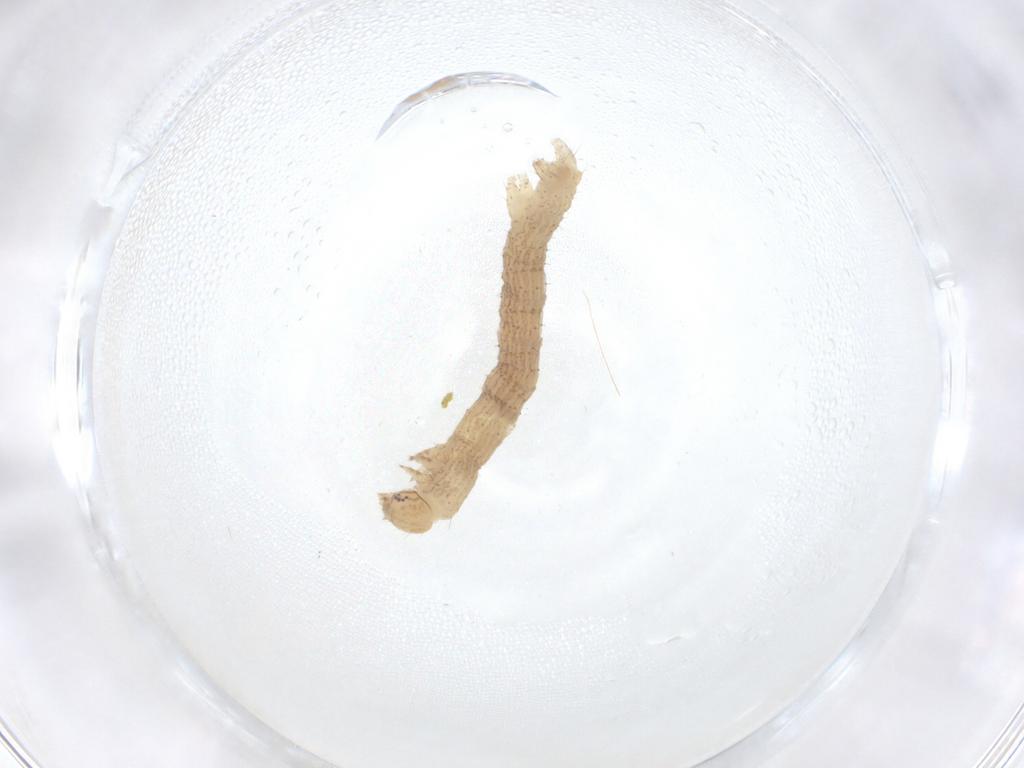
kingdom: Animalia
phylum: Arthropoda
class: Insecta
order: Lepidoptera
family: Geometridae
